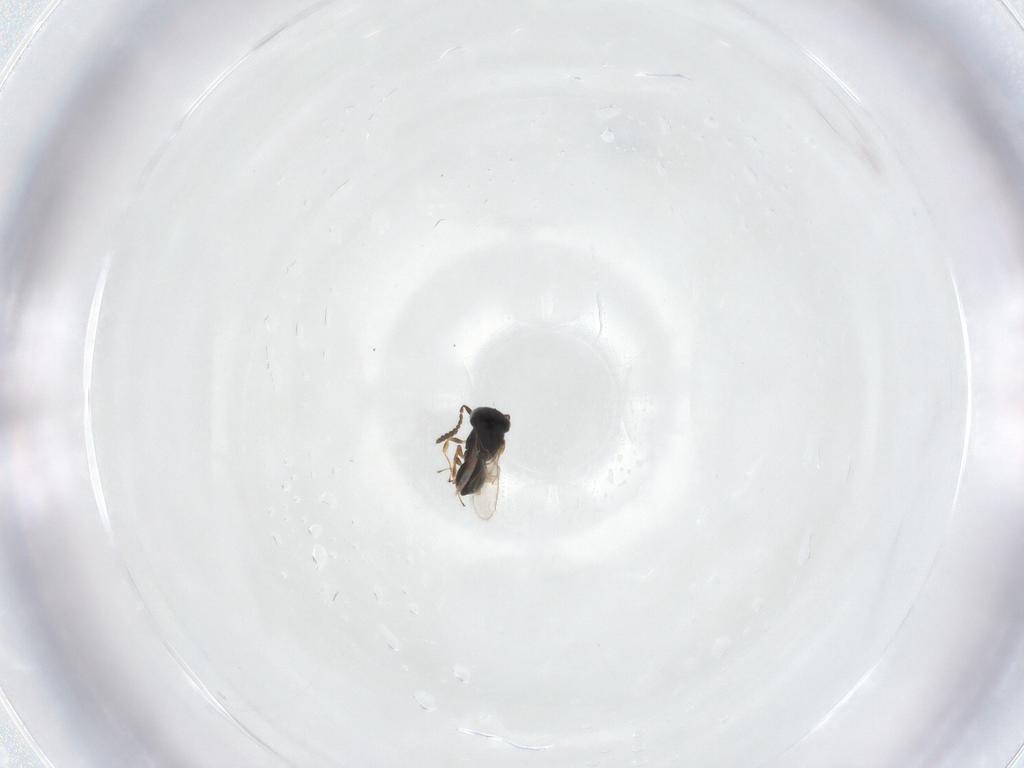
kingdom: Animalia
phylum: Arthropoda
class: Insecta
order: Hymenoptera
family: Scelionidae
